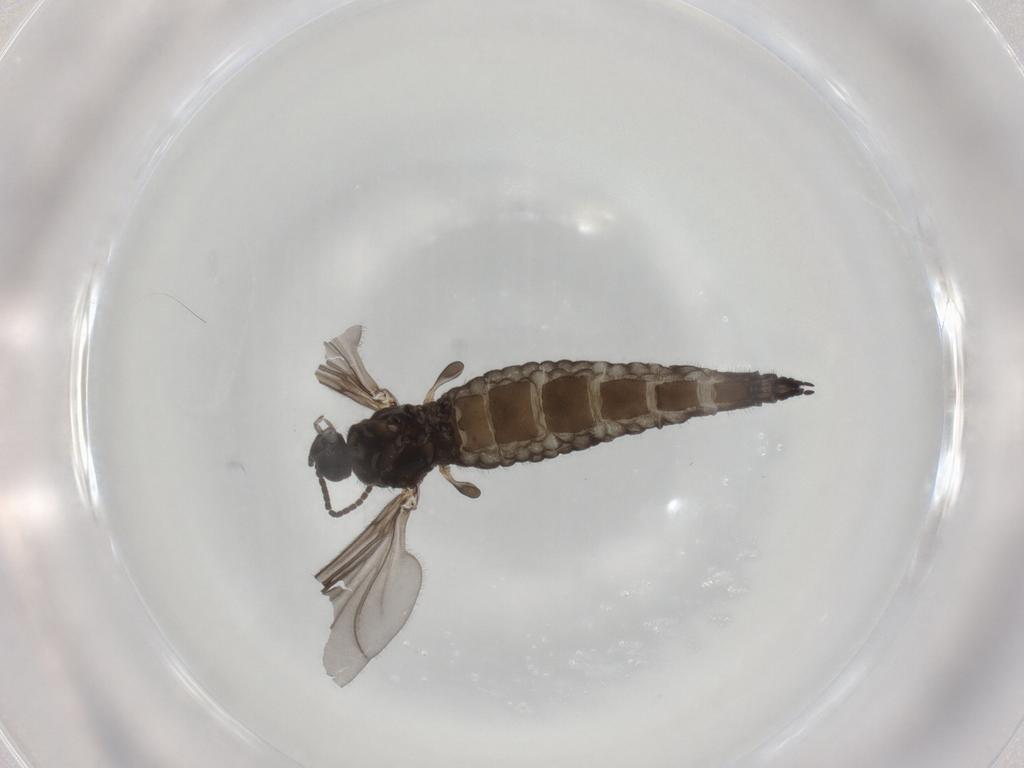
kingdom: Animalia
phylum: Arthropoda
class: Insecta
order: Diptera
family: Sciaridae
